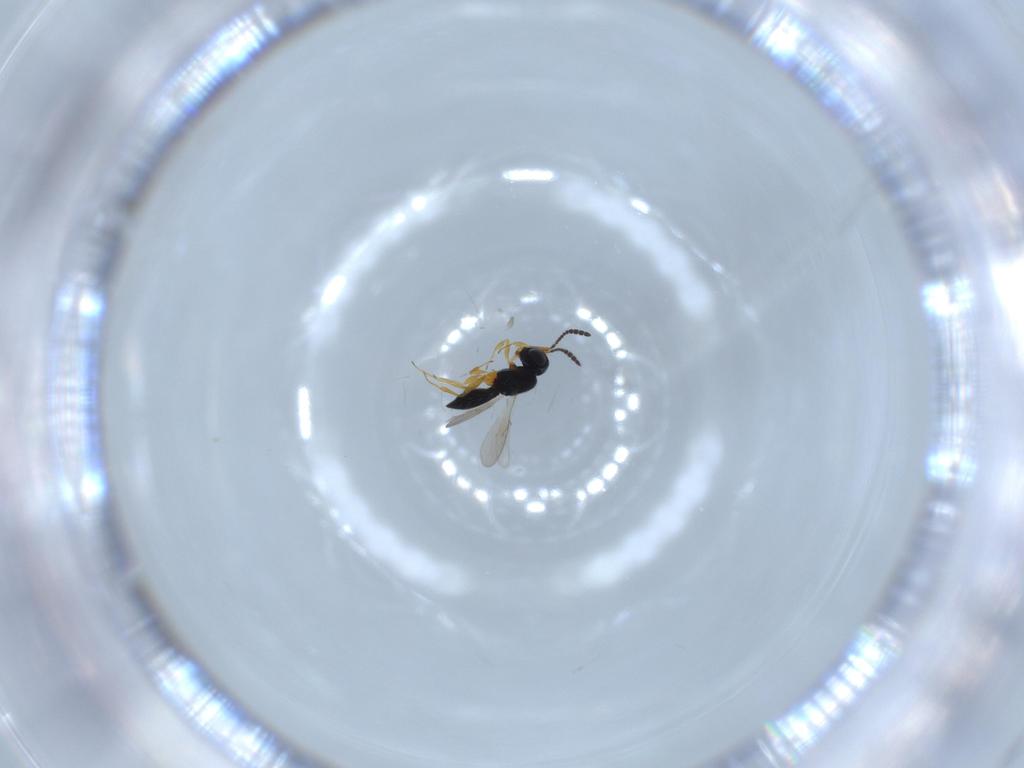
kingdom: Animalia
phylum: Arthropoda
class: Insecta
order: Hymenoptera
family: Scelionidae
